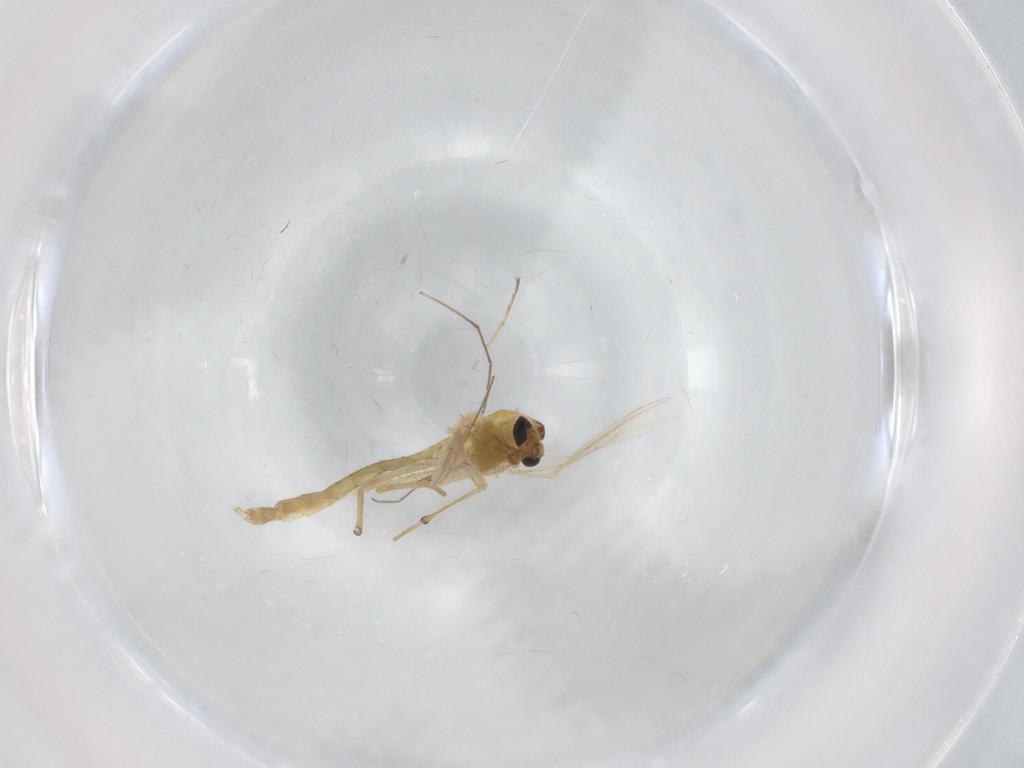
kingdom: Animalia
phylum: Arthropoda
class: Insecta
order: Diptera
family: Chironomidae
